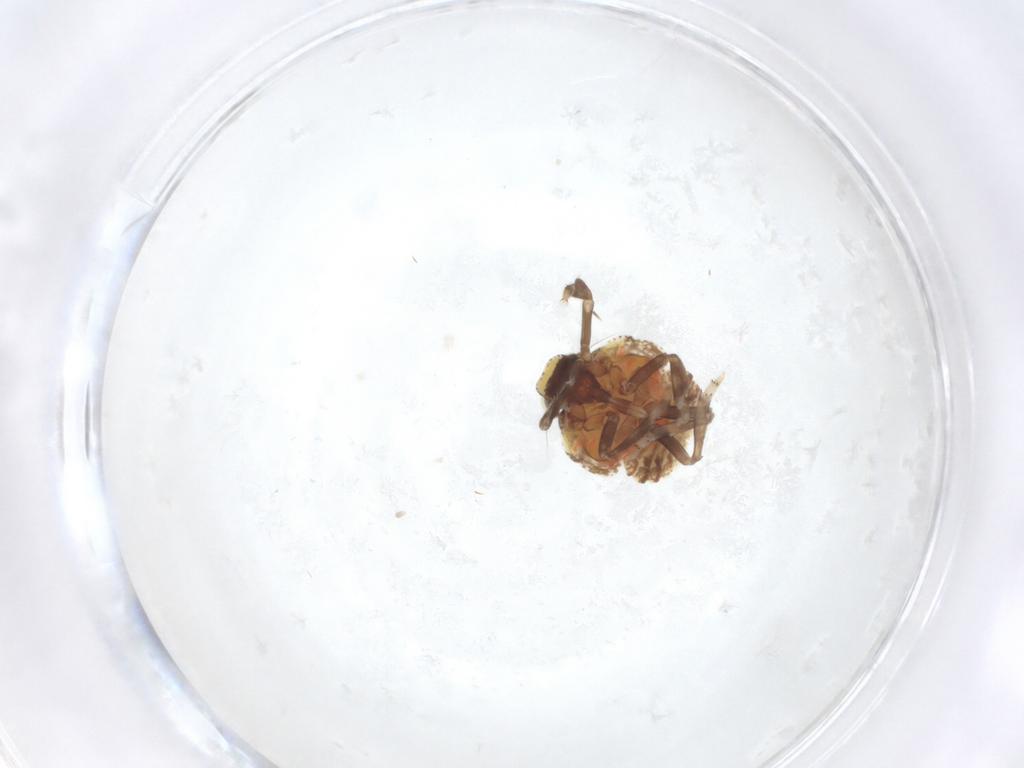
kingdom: Animalia
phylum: Arthropoda
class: Insecta
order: Hemiptera
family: Issidae
